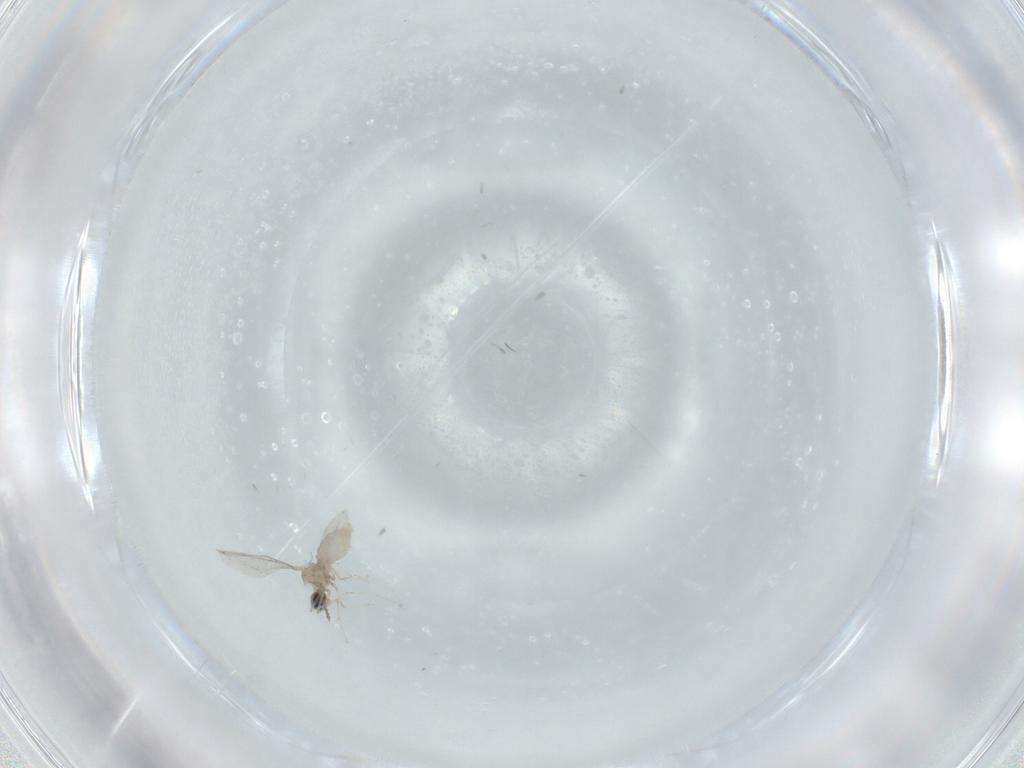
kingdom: Animalia
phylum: Arthropoda
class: Insecta
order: Diptera
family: Cecidomyiidae
